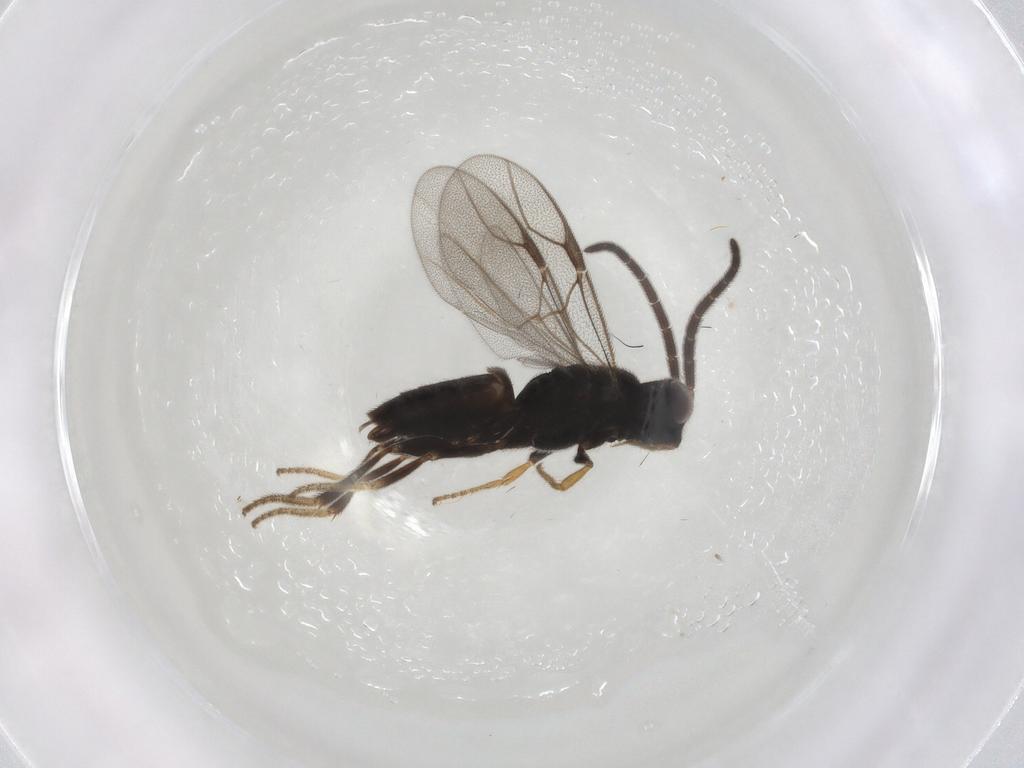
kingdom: Animalia
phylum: Arthropoda
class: Insecta
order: Hymenoptera
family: Dryinidae
